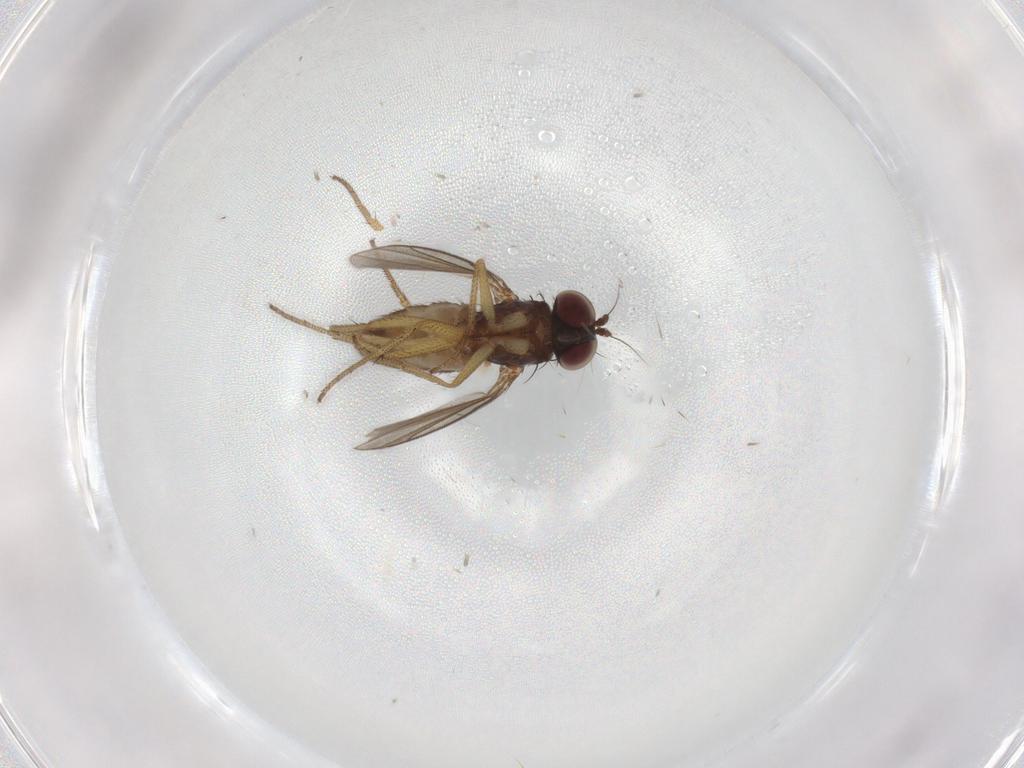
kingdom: Animalia
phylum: Arthropoda
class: Insecta
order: Diptera
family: Dolichopodidae
